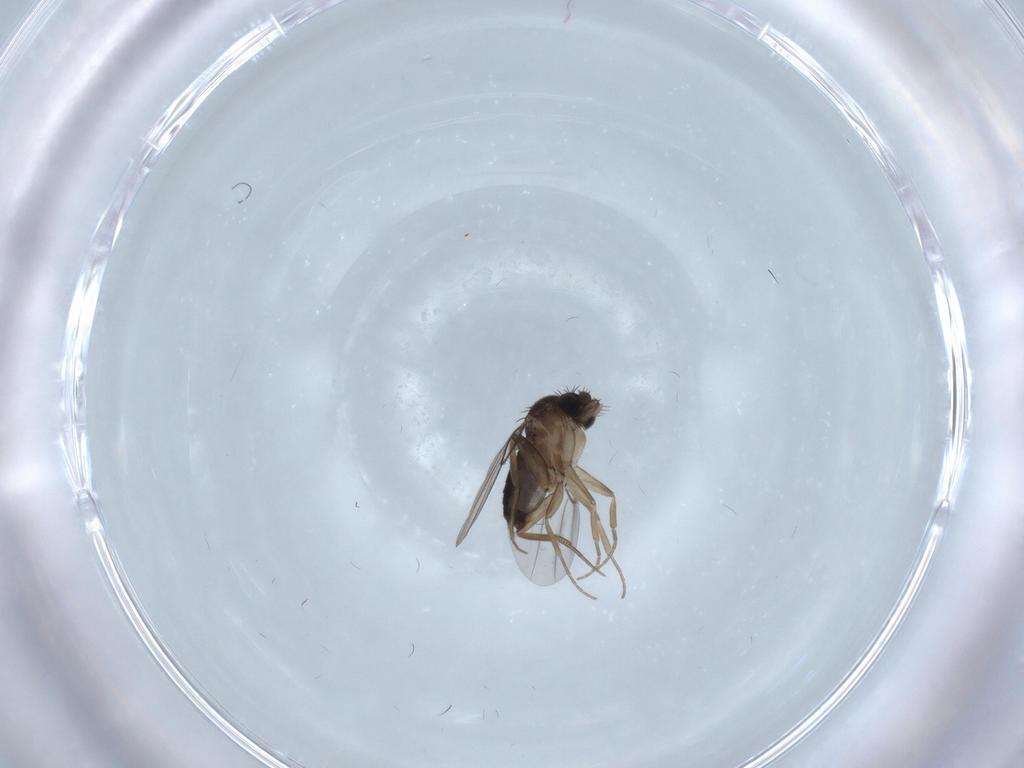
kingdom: Animalia
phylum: Arthropoda
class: Insecta
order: Diptera
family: Phoridae
